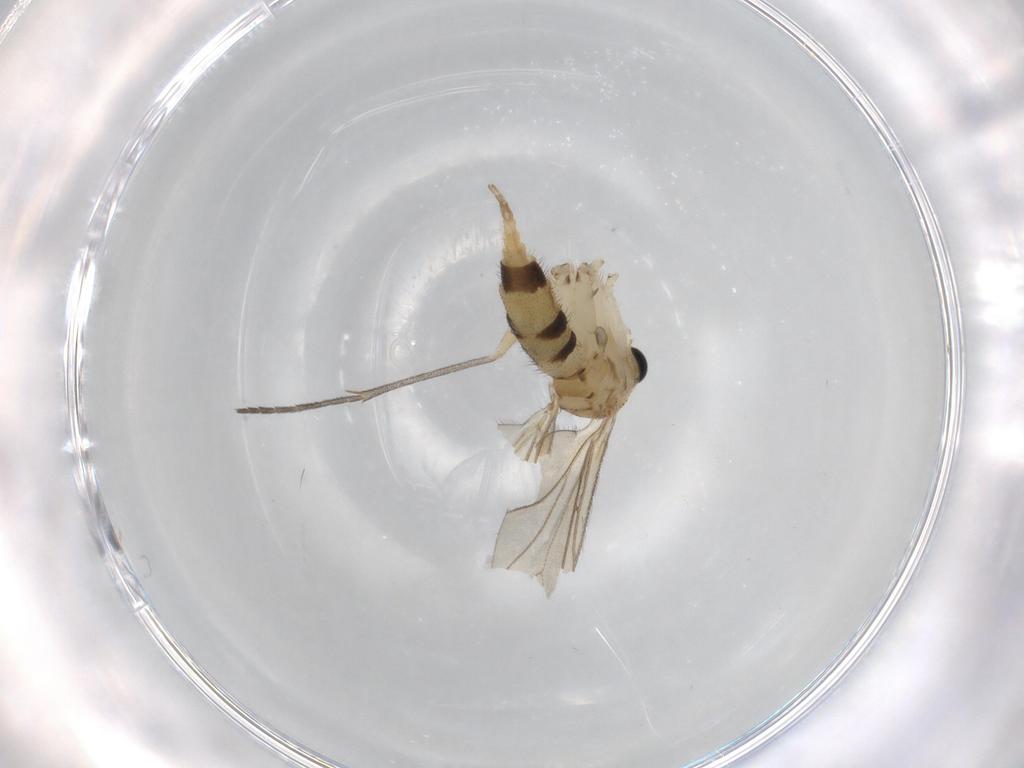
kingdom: Animalia
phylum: Arthropoda
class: Insecta
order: Diptera
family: Sciaridae
